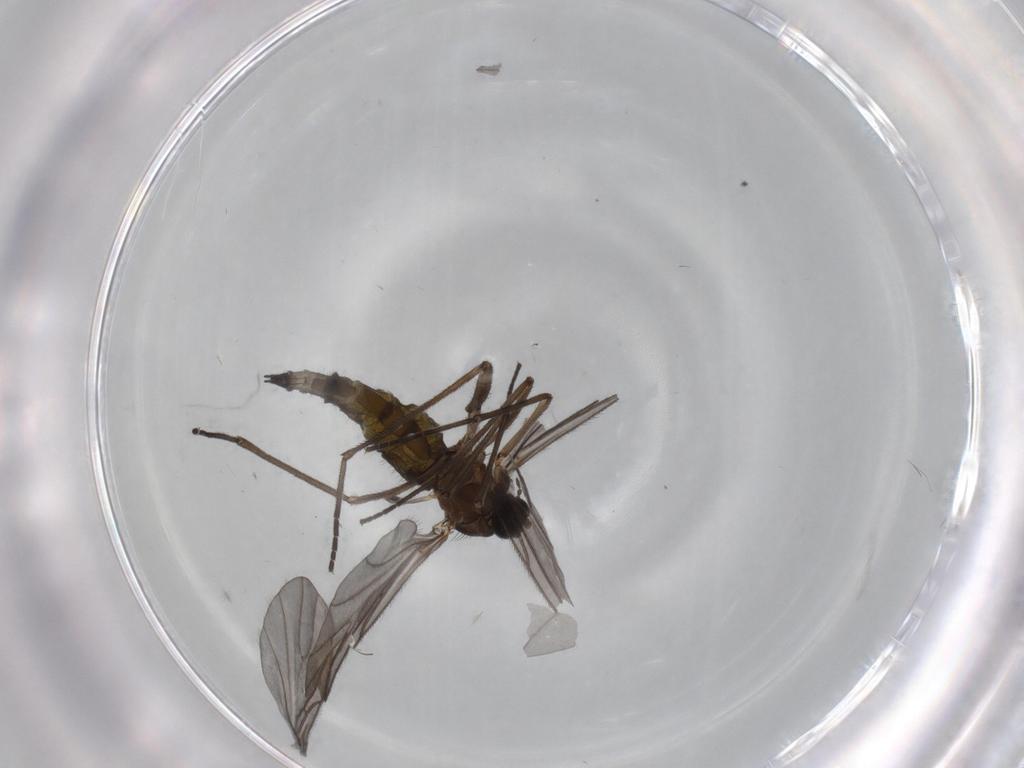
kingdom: Animalia
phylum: Arthropoda
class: Insecta
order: Diptera
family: Sciaridae
